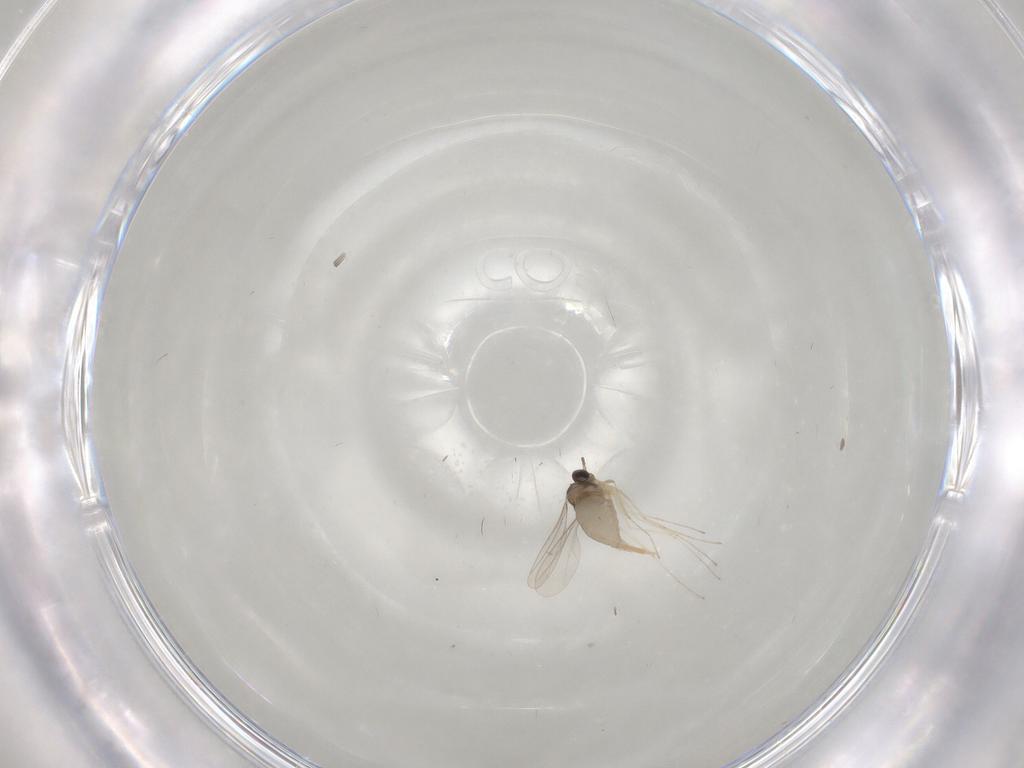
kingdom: Animalia
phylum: Arthropoda
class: Insecta
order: Diptera
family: Cecidomyiidae
